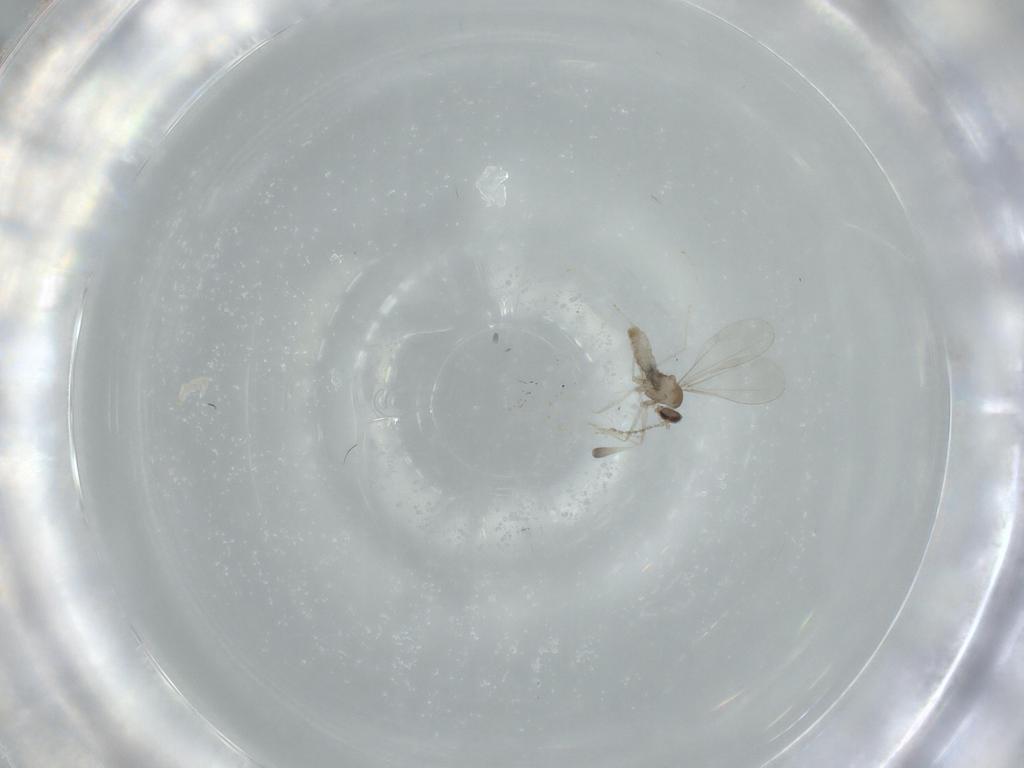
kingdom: Animalia
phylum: Arthropoda
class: Insecta
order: Diptera
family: Cecidomyiidae
